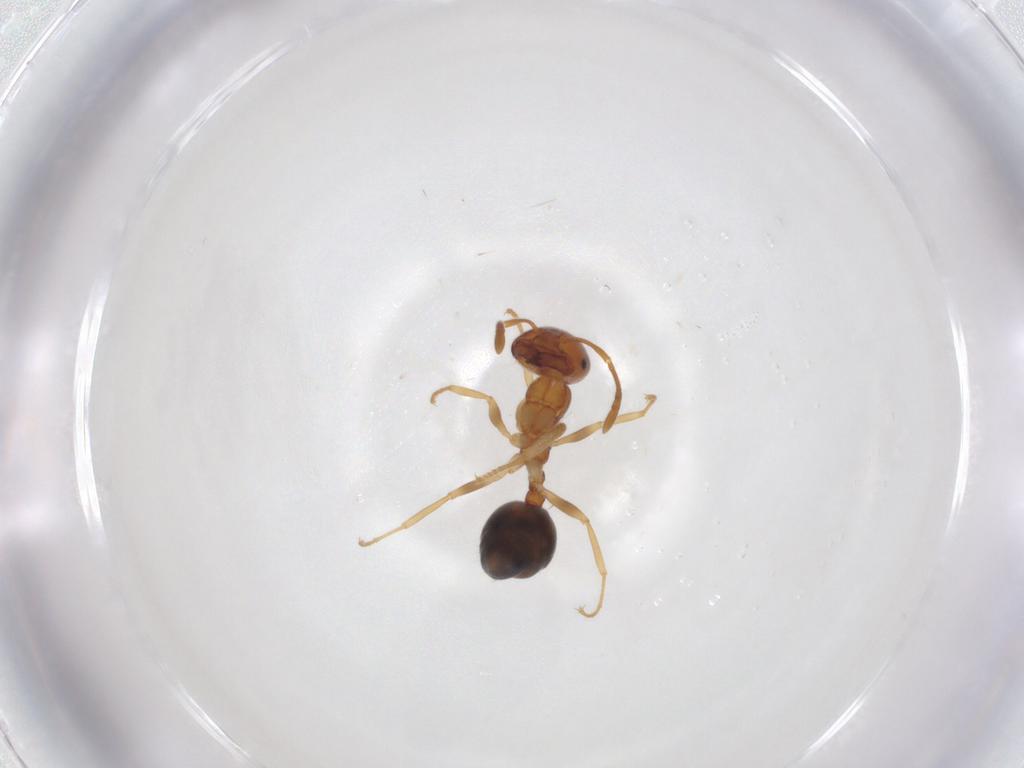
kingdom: Animalia
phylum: Arthropoda
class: Insecta
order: Hymenoptera
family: Formicidae
